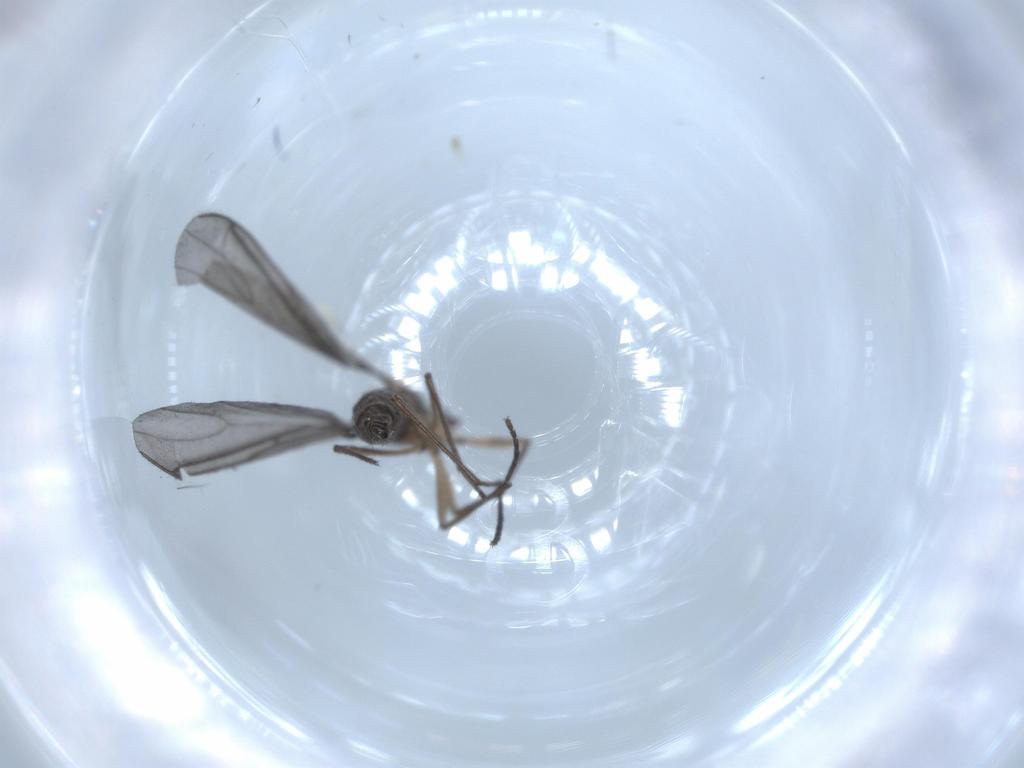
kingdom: Animalia
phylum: Arthropoda
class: Insecta
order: Diptera
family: Sciaridae
